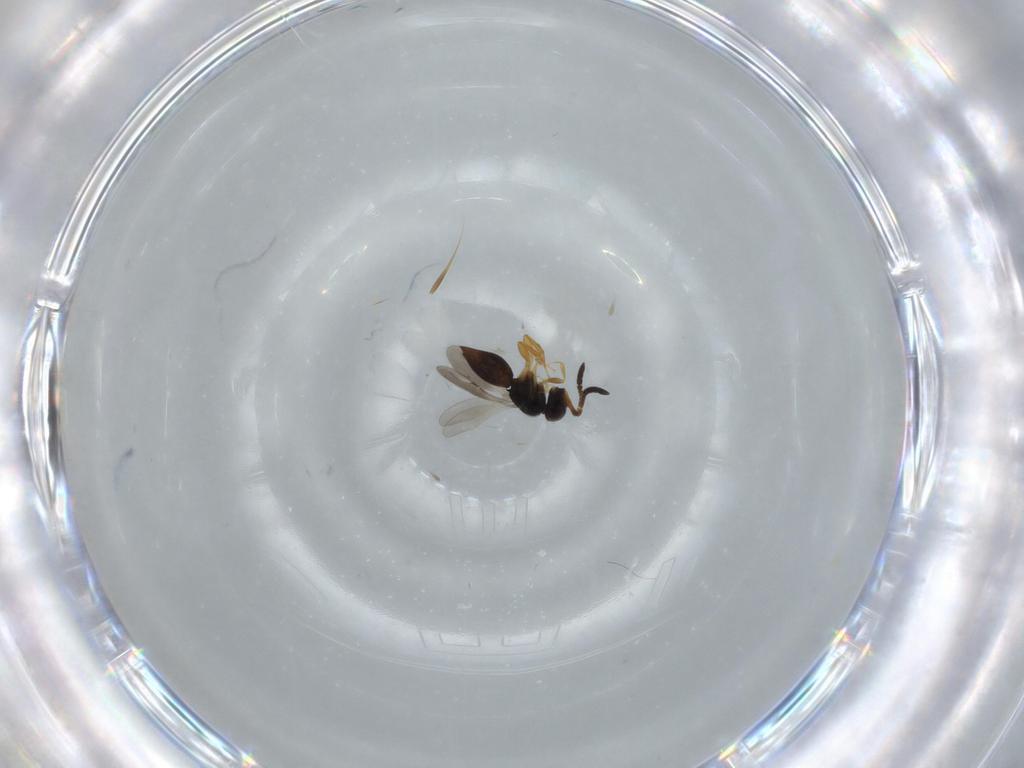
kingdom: Animalia
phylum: Arthropoda
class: Insecta
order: Hymenoptera
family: Ceraphronidae
